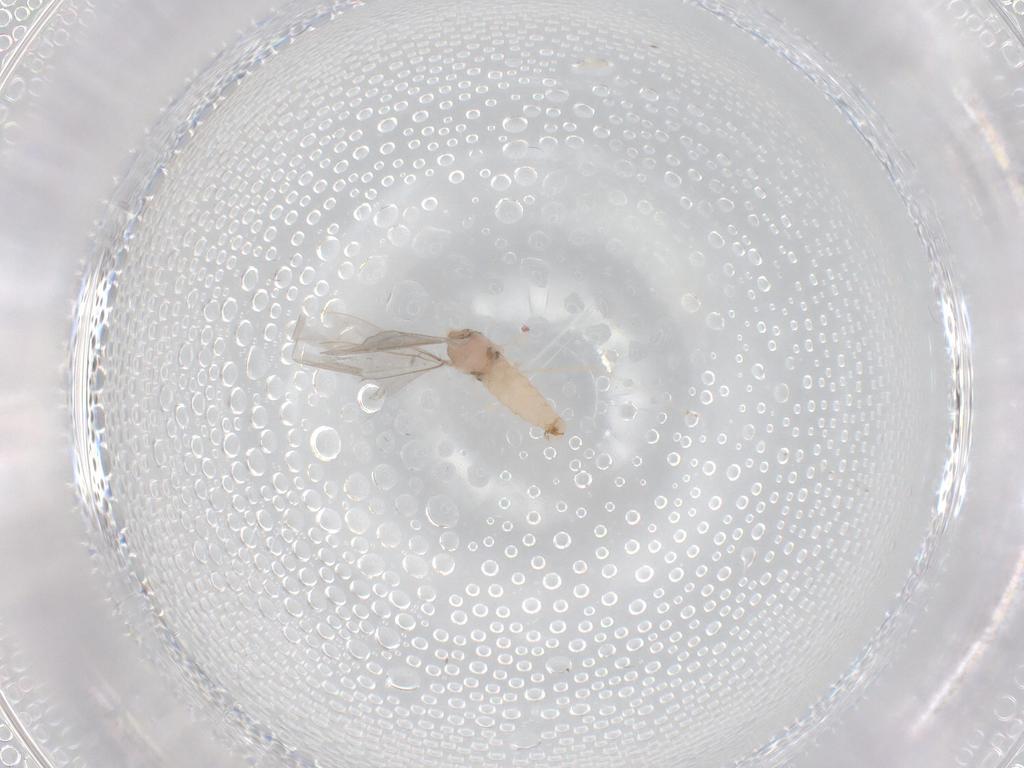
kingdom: Animalia
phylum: Arthropoda
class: Insecta
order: Diptera
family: Cecidomyiidae
